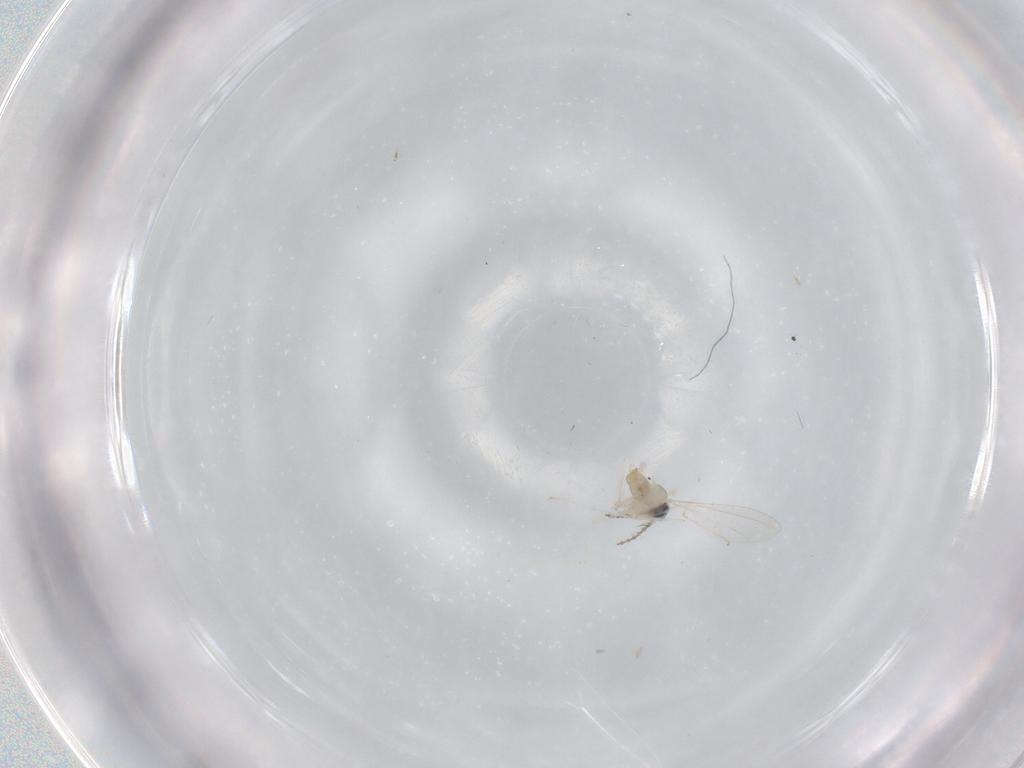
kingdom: Animalia
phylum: Arthropoda
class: Insecta
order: Diptera
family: Cecidomyiidae
